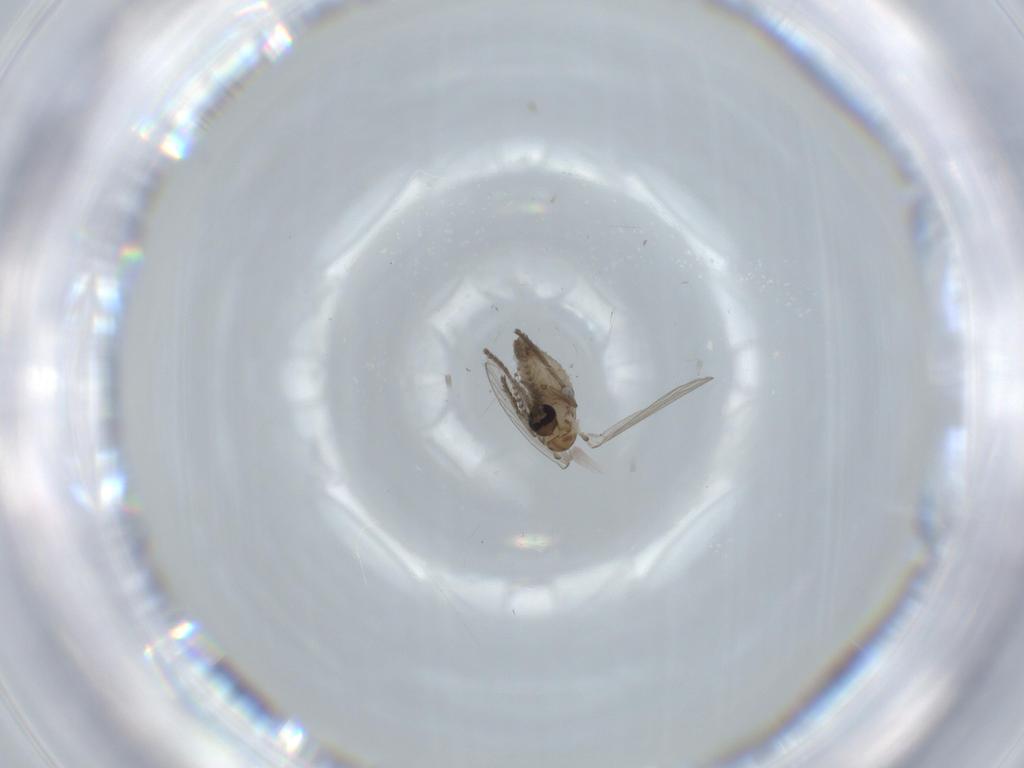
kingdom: Animalia
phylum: Arthropoda
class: Insecta
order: Diptera
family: Psychodidae
